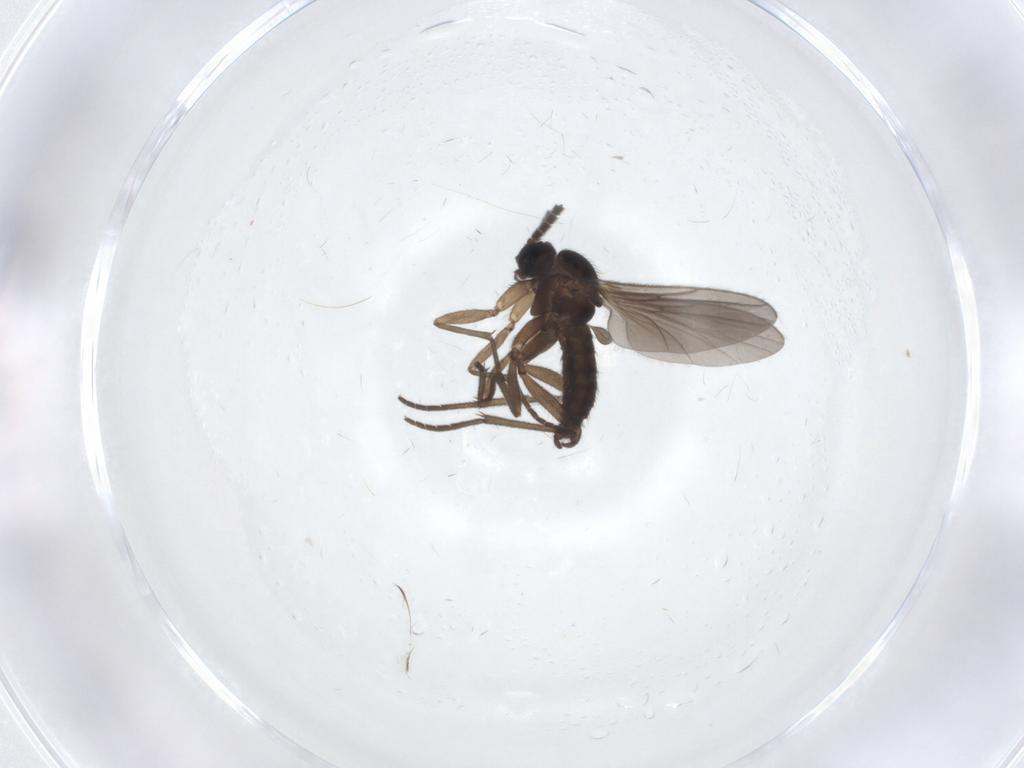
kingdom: Animalia
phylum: Arthropoda
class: Insecta
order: Diptera
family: Sciaridae
